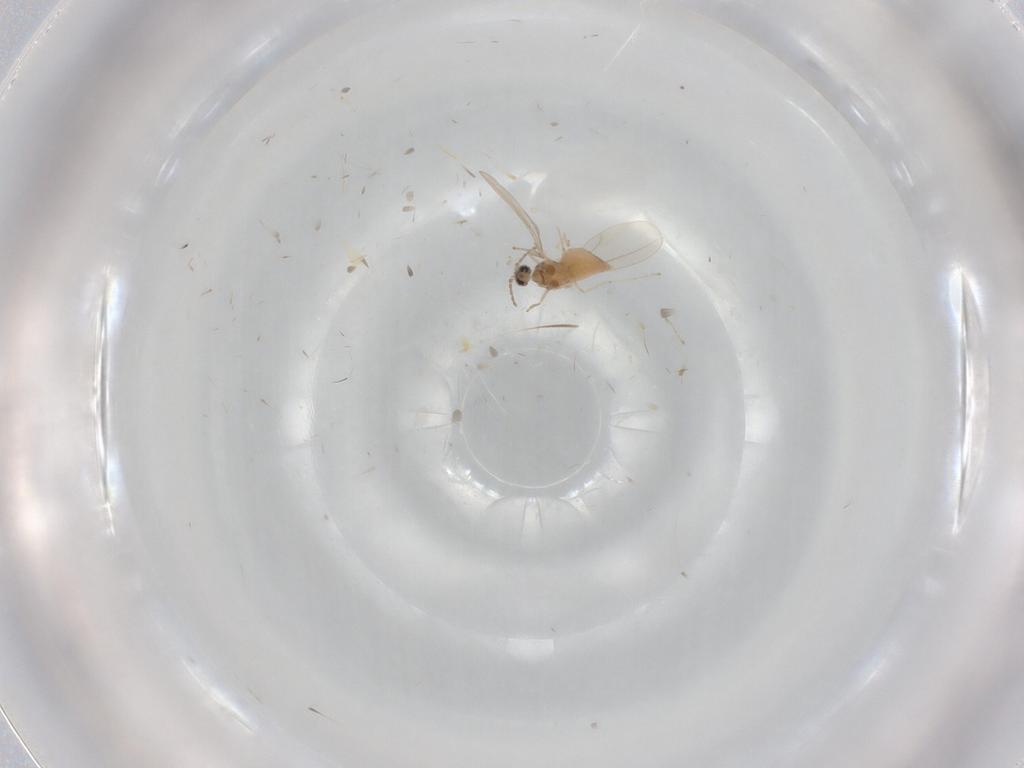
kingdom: Animalia
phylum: Arthropoda
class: Insecta
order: Diptera
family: Cecidomyiidae
